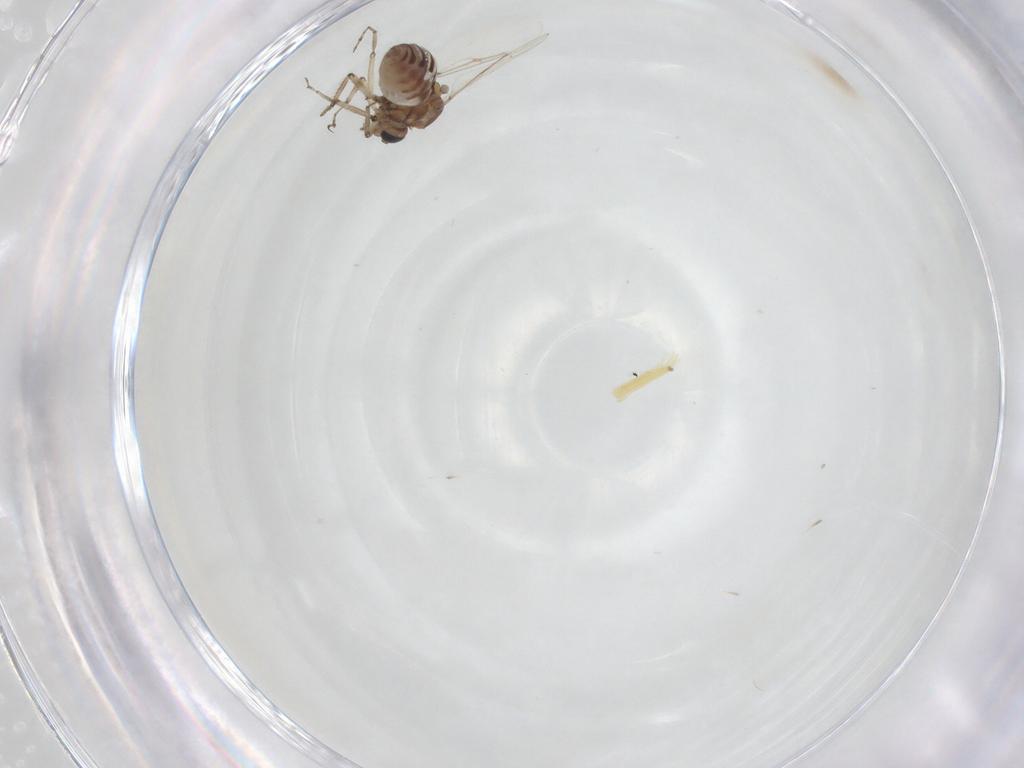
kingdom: Animalia
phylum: Arthropoda
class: Insecta
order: Diptera
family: Ceratopogonidae
